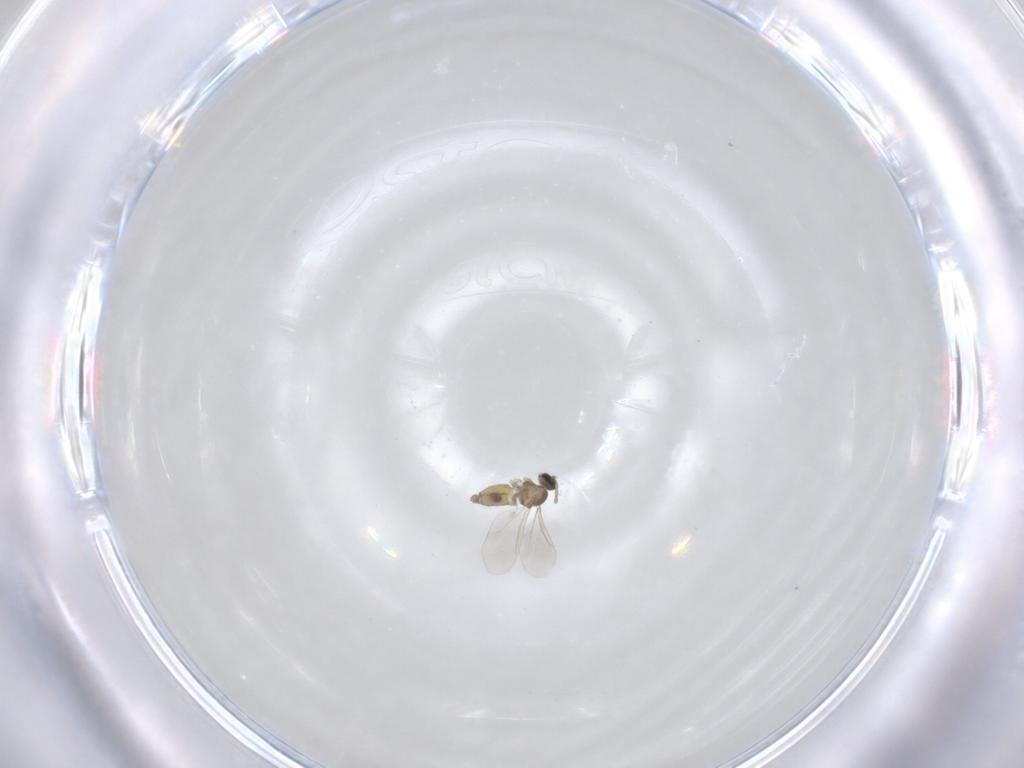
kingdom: Animalia
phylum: Arthropoda
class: Insecta
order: Diptera
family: Cecidomyiidae
